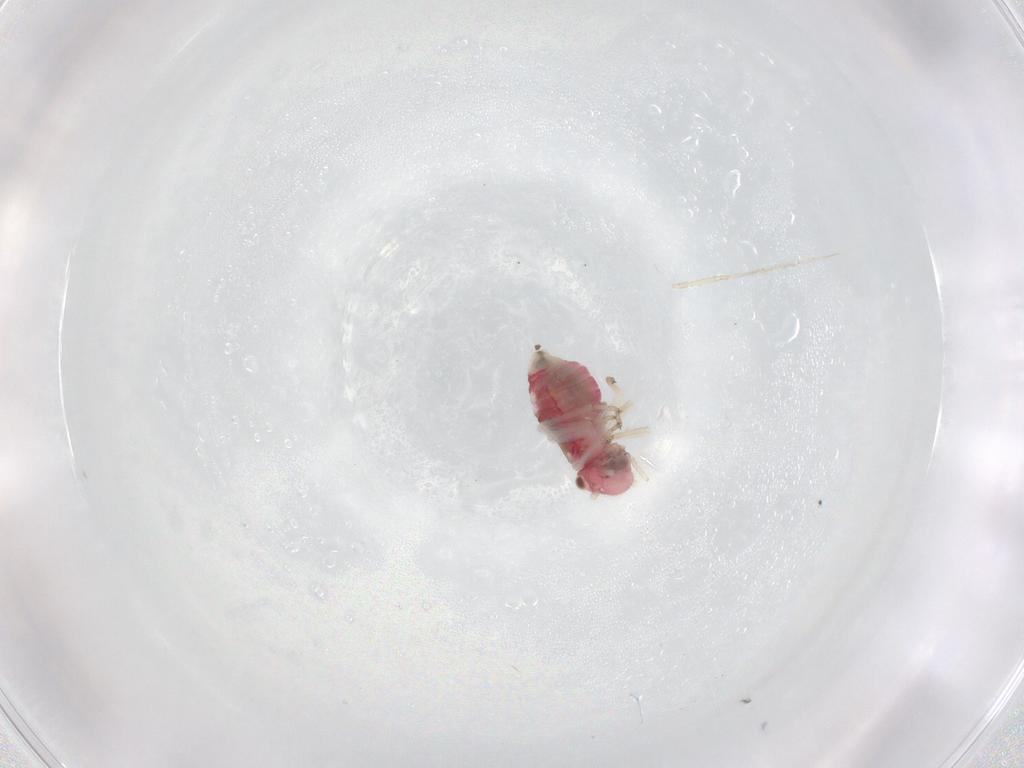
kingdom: Animalia
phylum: Arthropoda
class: Insecta
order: Psocodea
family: Caeciliusidae
